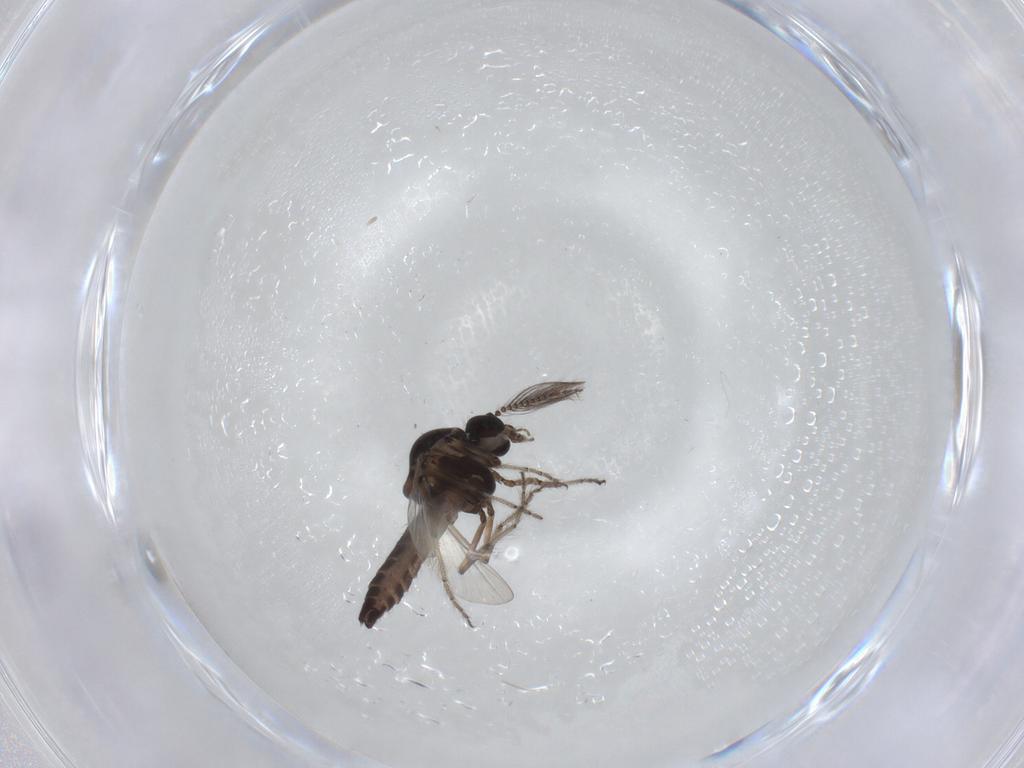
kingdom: Animalia
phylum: Arthropoda
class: Insecta
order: Diptera
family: Ceratopogonidae
